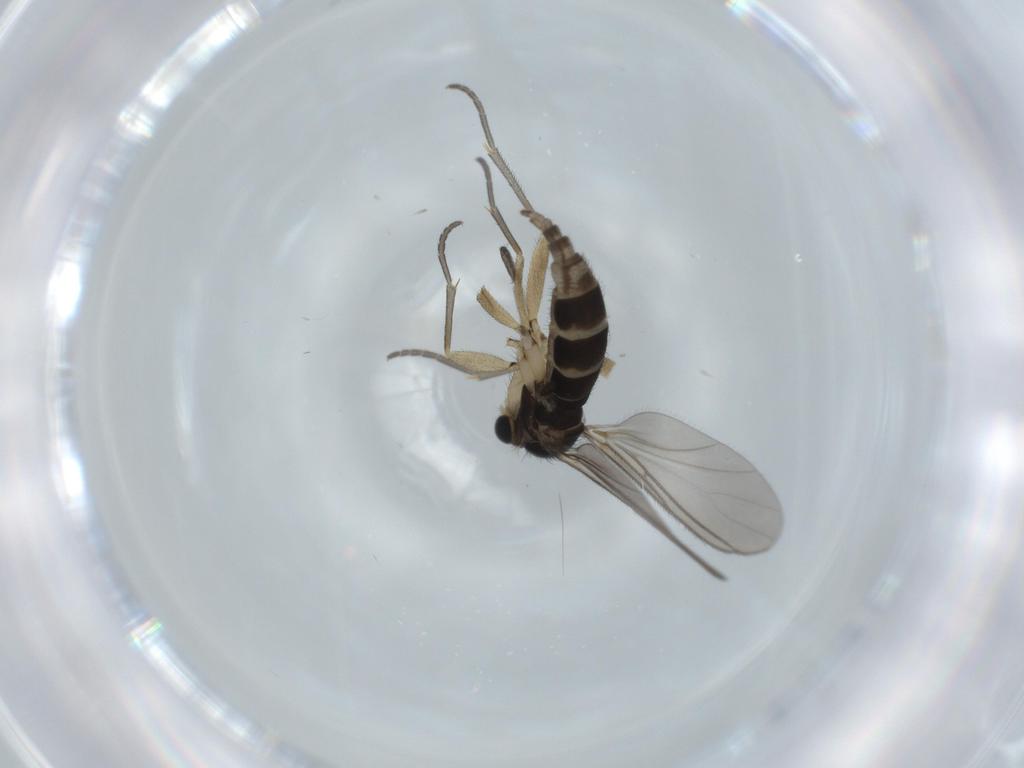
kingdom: Animalia
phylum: Arthropoda
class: Insecta
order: Diptera
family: Sciaridae
